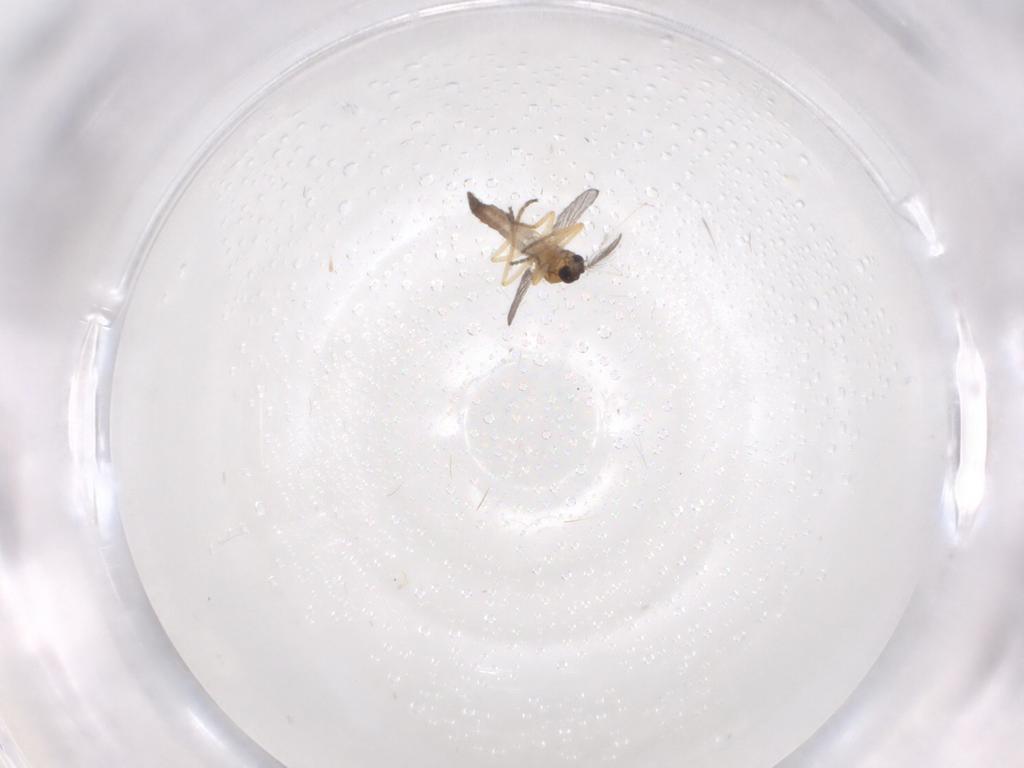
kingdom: Animalia
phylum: Arthropoda
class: Insecta
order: Diptera
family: Ceratopogonidae
